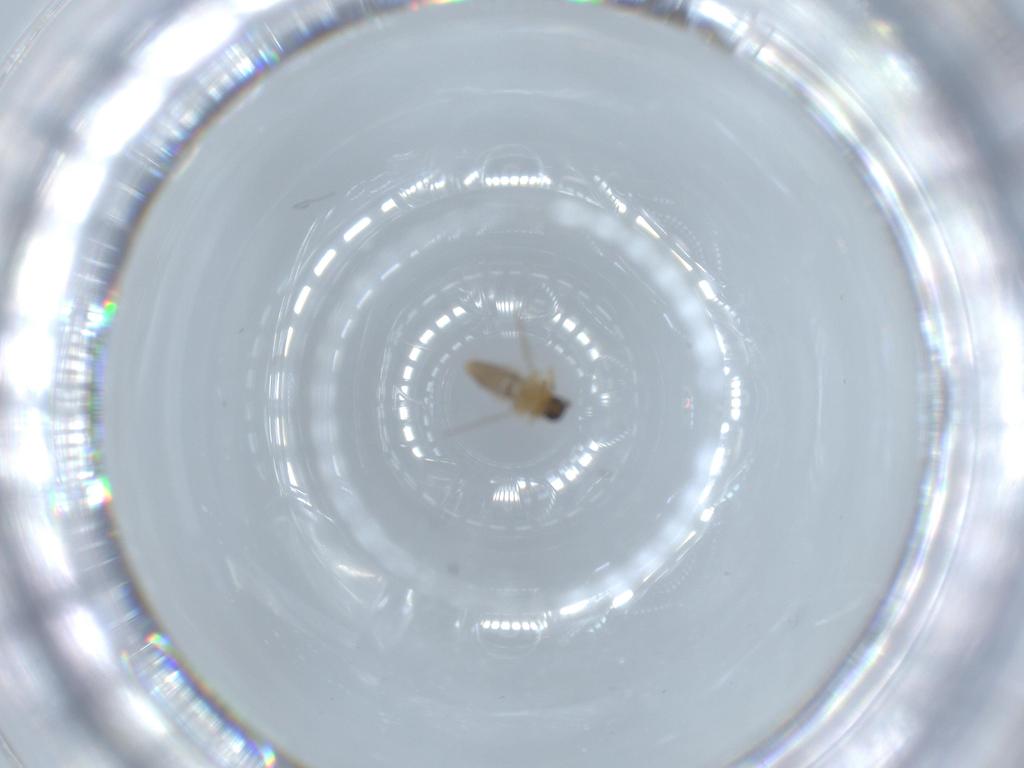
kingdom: Animalia
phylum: Arthropoda
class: Insecta
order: Diptera
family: Ceratopogonidae
